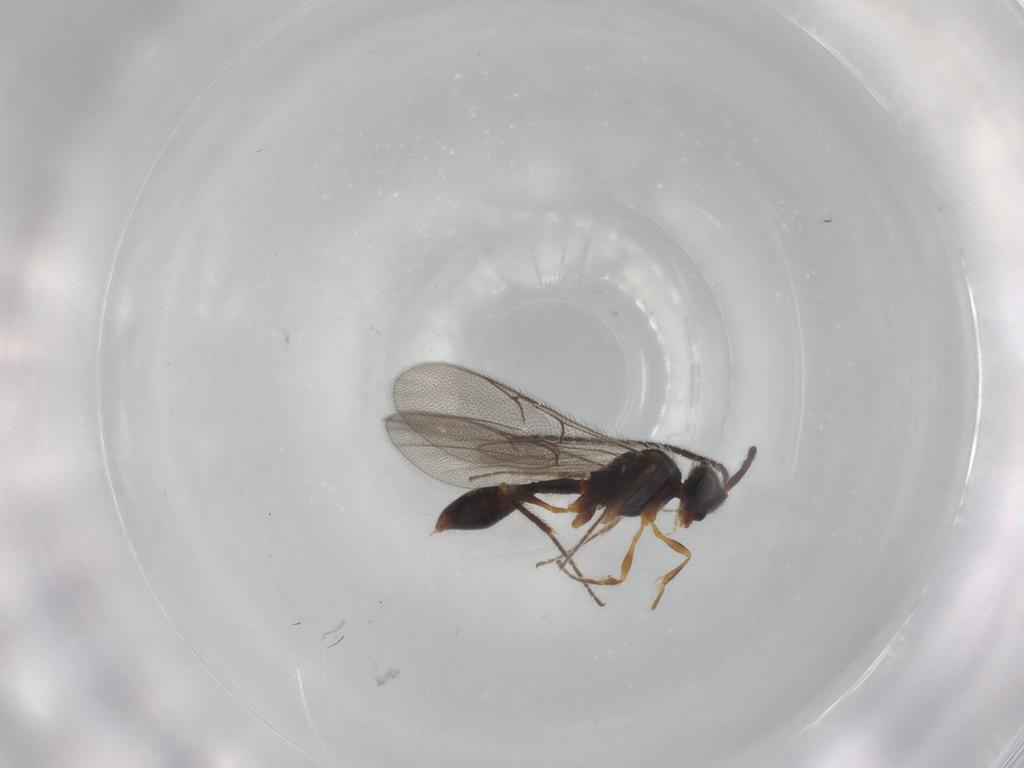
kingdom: Animalia
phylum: Arthropoda
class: Insecta
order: Hymenoptera
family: Diapriidae
